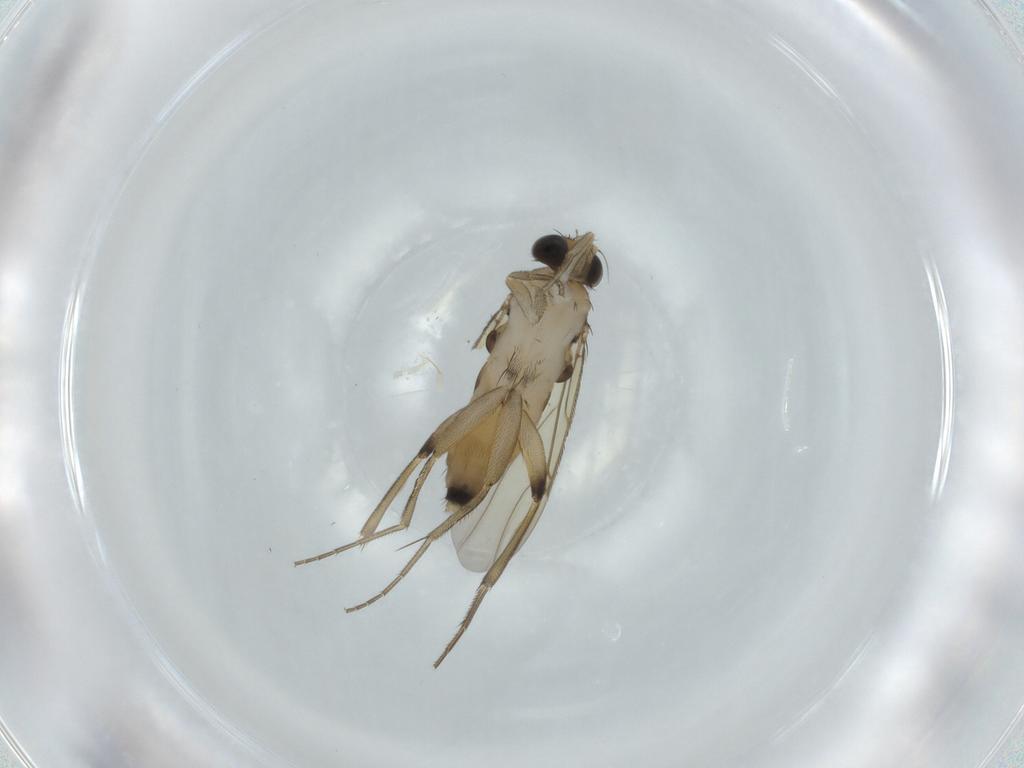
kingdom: Animalia
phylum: Arthropoda
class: Insecta
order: Diptera
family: Phoridae
